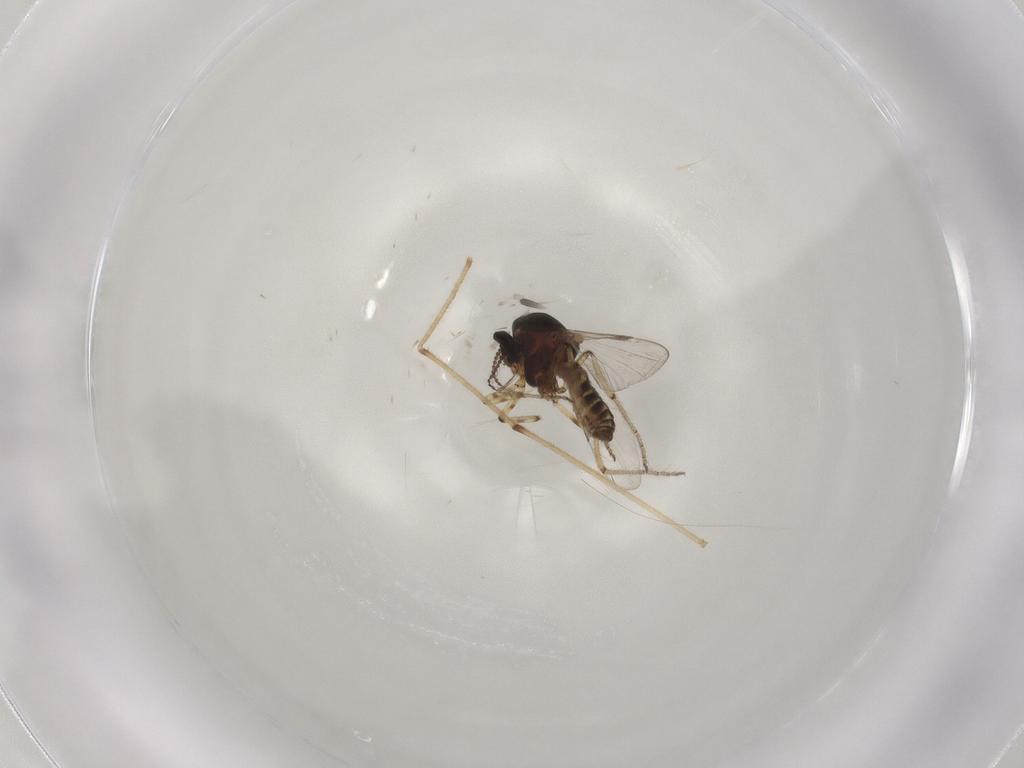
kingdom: Animalia
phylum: Arthropoda
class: Insecta
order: Diptera
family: Ceratopogonidae
